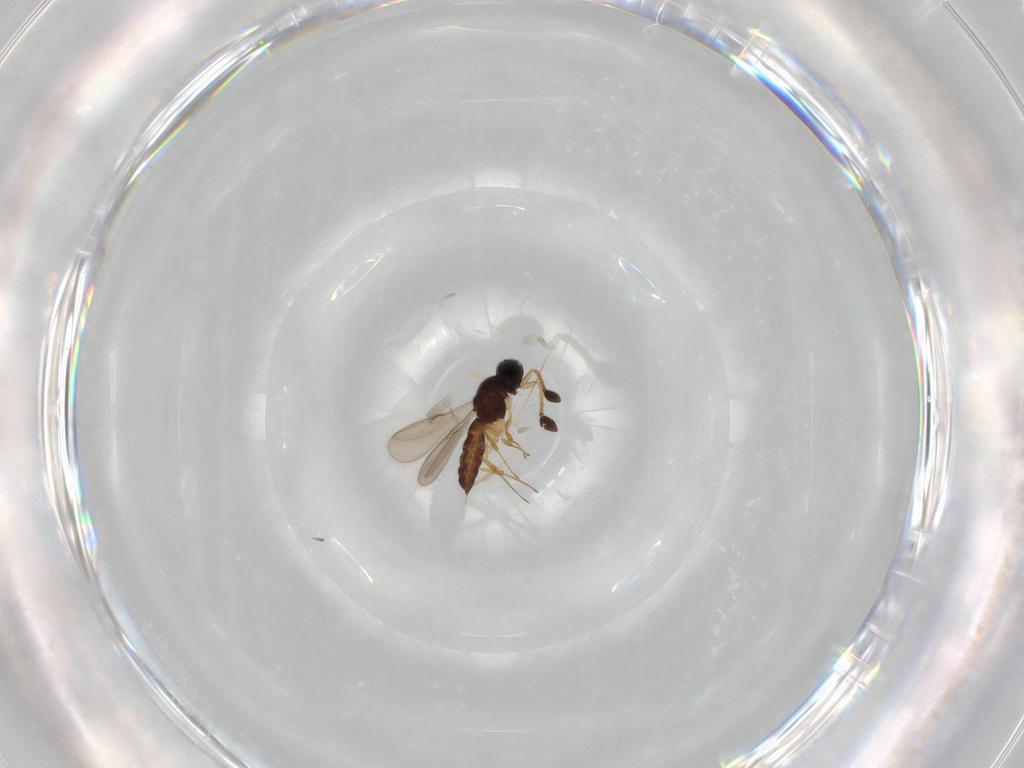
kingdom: Animalia
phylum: Arthropoda
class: Insecta
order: Hymenoptera
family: Scelionidae
